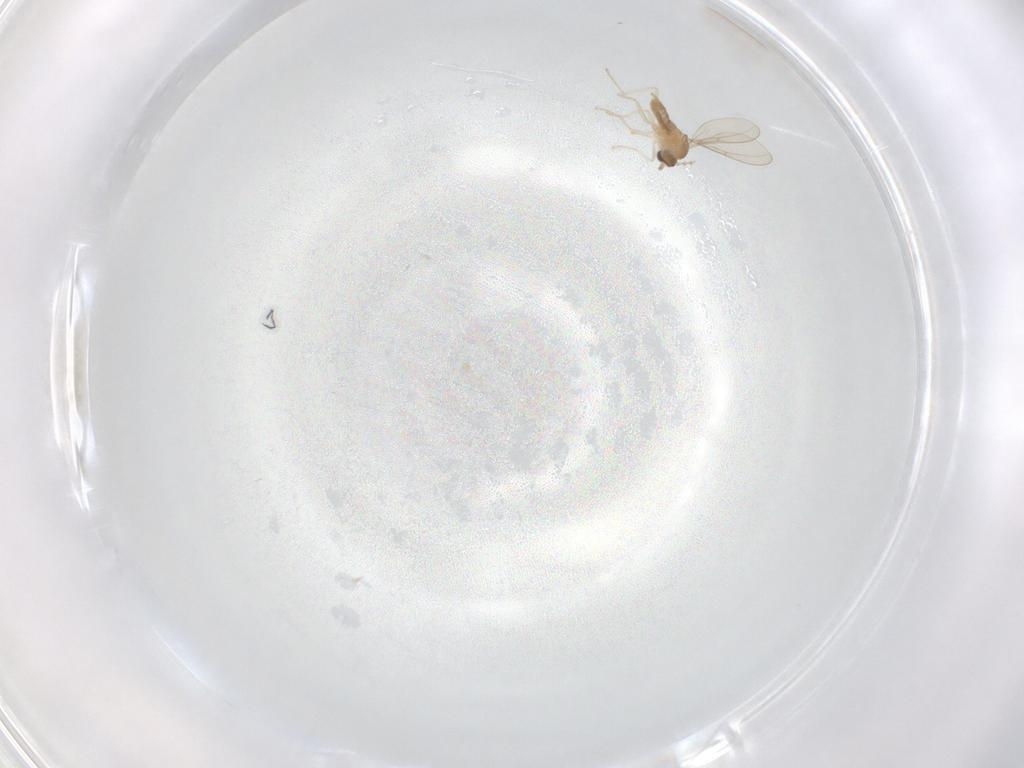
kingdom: Animalia
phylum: Arthropoda
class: Insecta
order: Diptera
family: Cecidomyiidae
